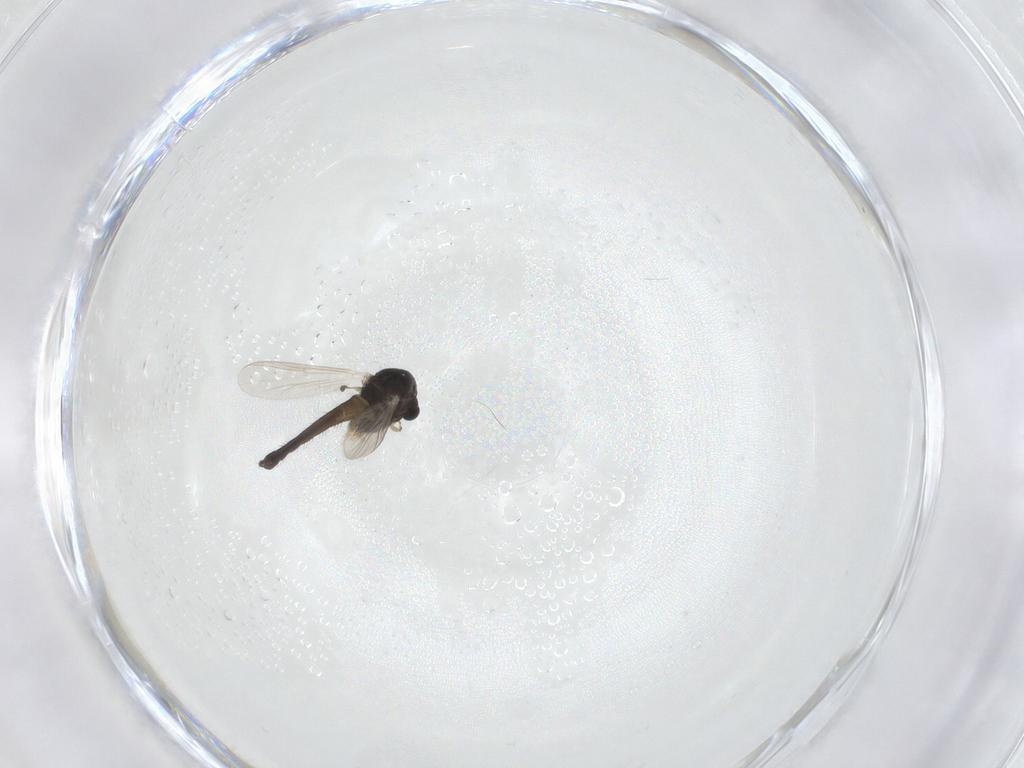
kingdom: Animalia
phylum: Arthropoda
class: Insecta
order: Diptera
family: Chironomidae
